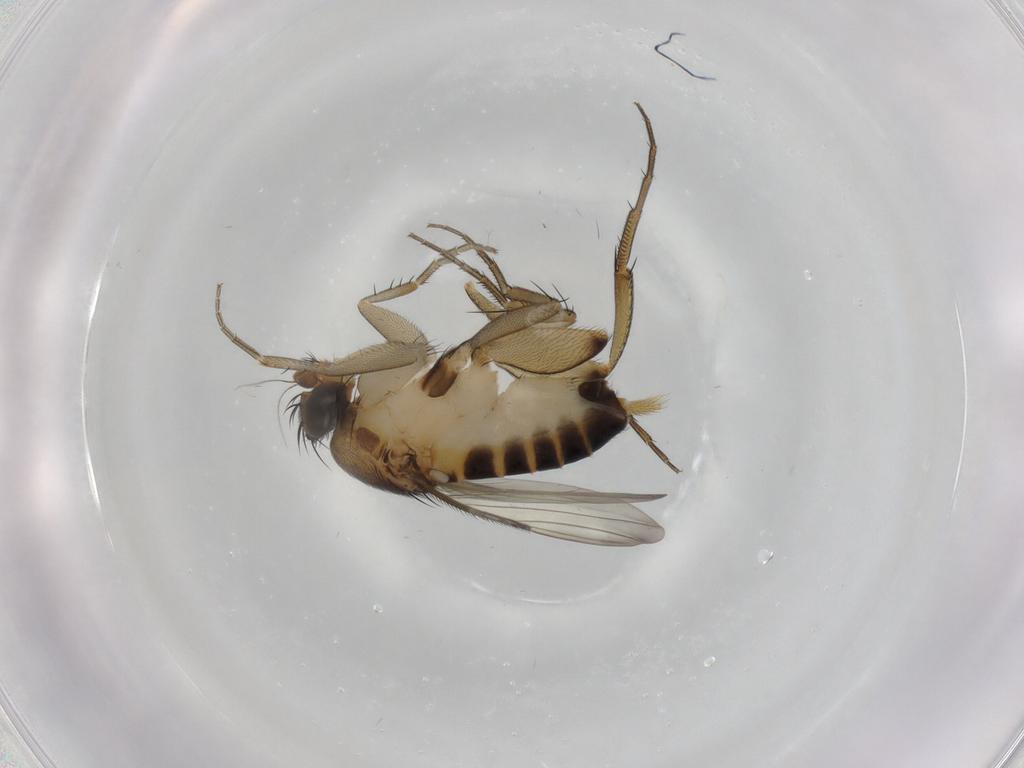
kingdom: Animalia
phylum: Arthropoda
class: Insecta
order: Diptera
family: Phoridae
